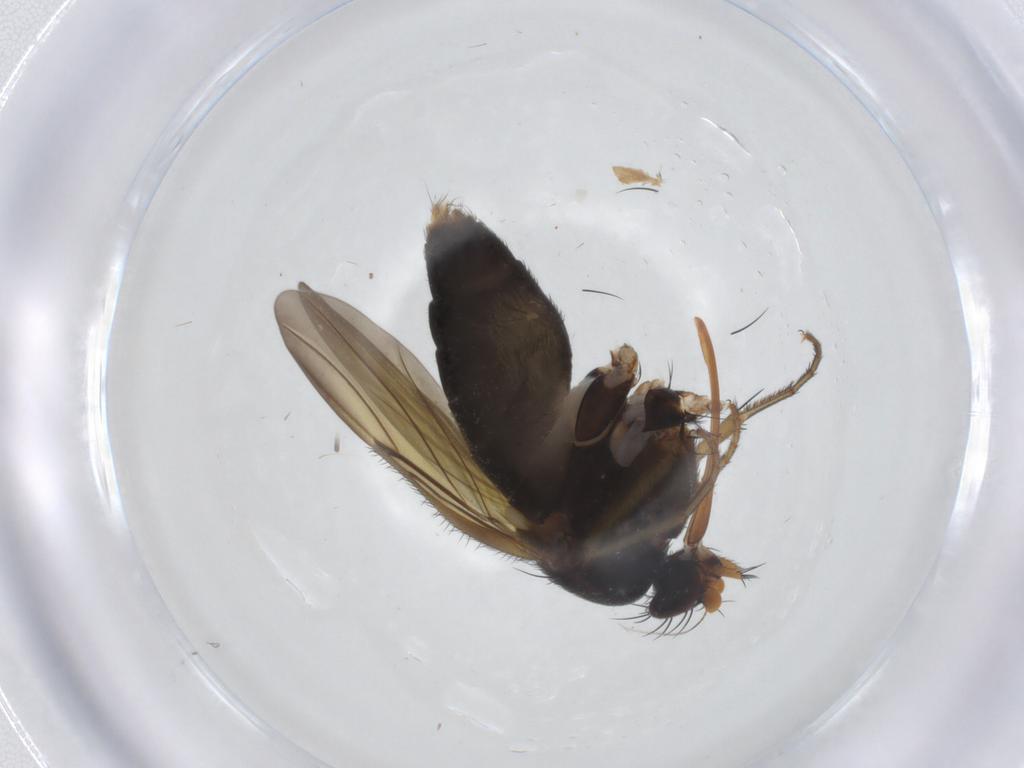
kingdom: Animalia
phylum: Arthropoda
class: Insecta
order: Diptera
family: Phoridae
